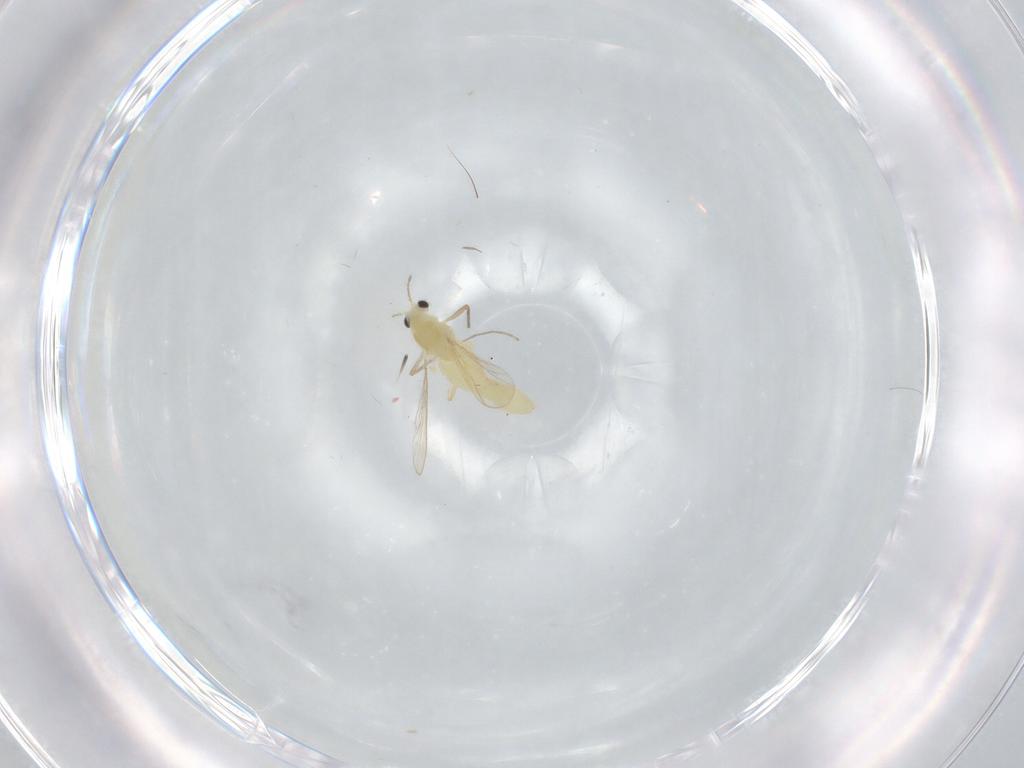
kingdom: Animalia
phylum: Arthropoda
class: Insecta
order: Diptera
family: Chironomidae
